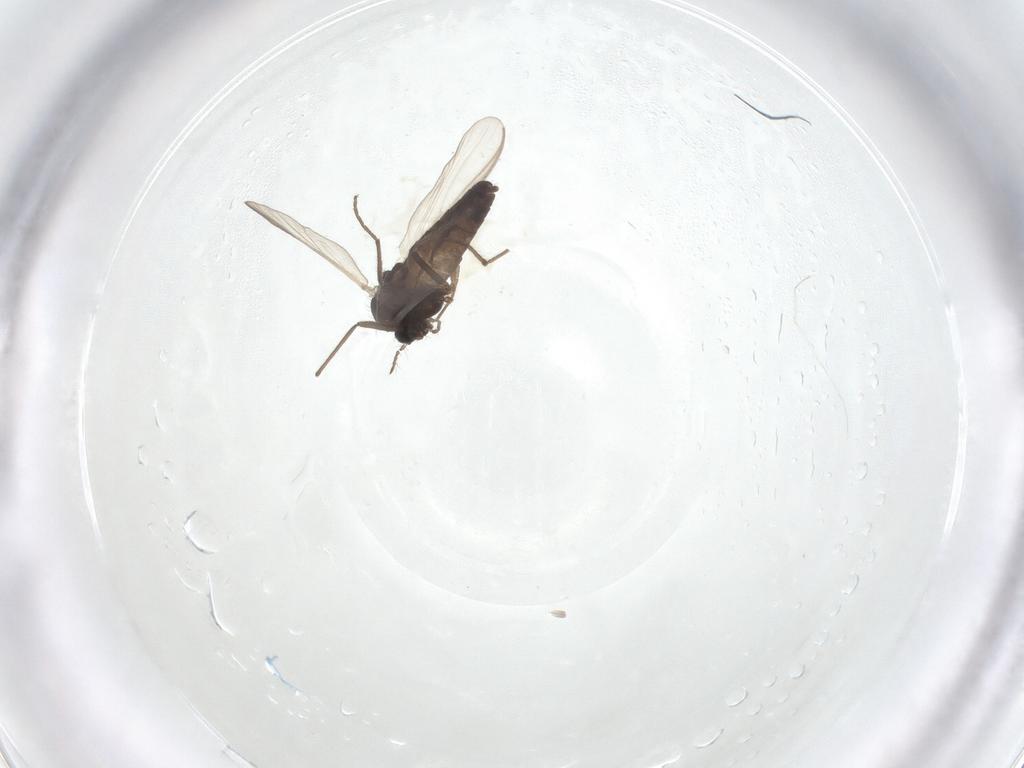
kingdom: Animalia
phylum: Arthropoda
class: Insecta
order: Diptera
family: Chironomidae
